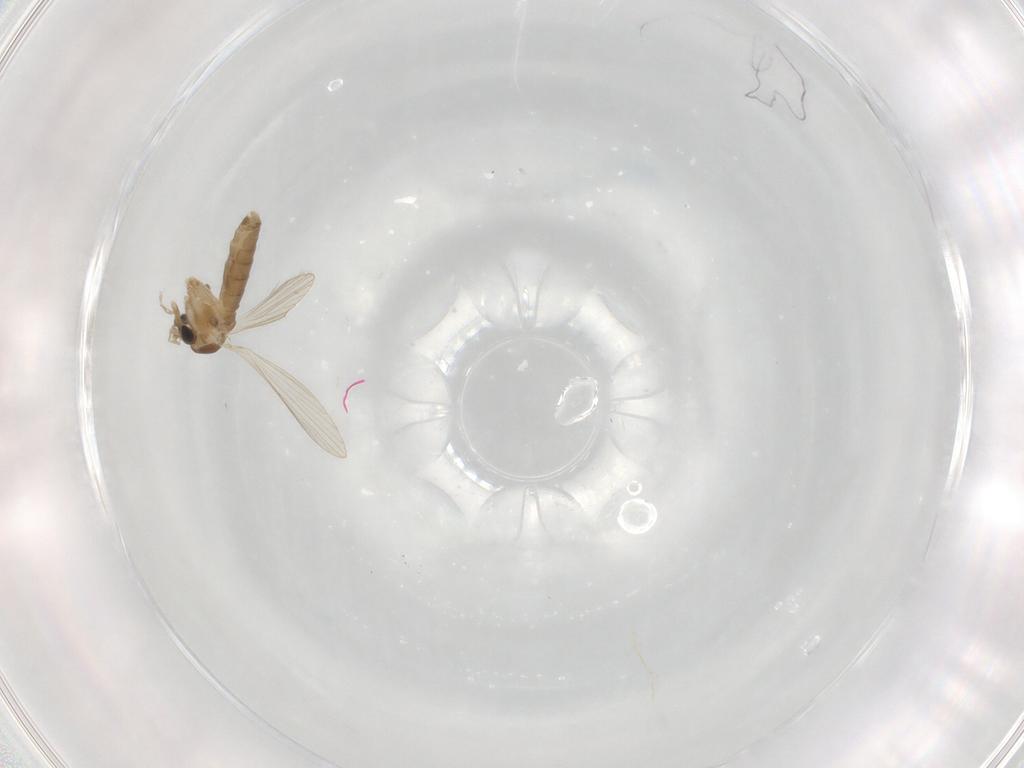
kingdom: Animalia
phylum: Arthropoda
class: Insecta
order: Diptera
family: Psychodidae
